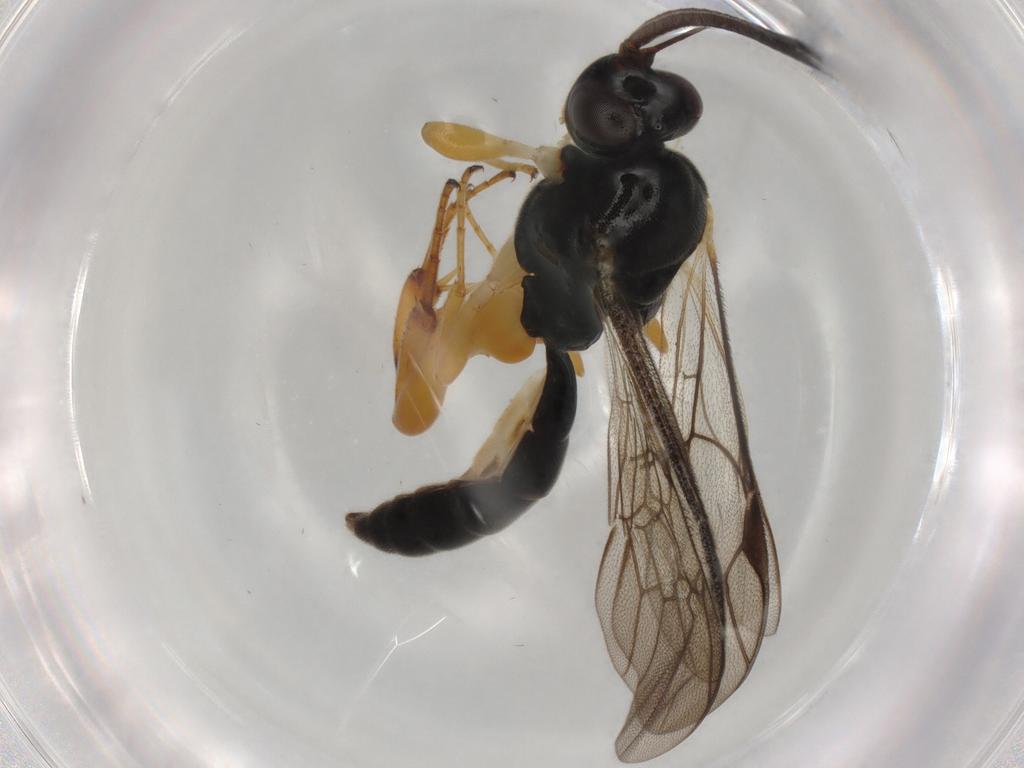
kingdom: Animalia
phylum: Arthropoda
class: Insecta
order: Hymenoptera
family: Ichneumonidae
